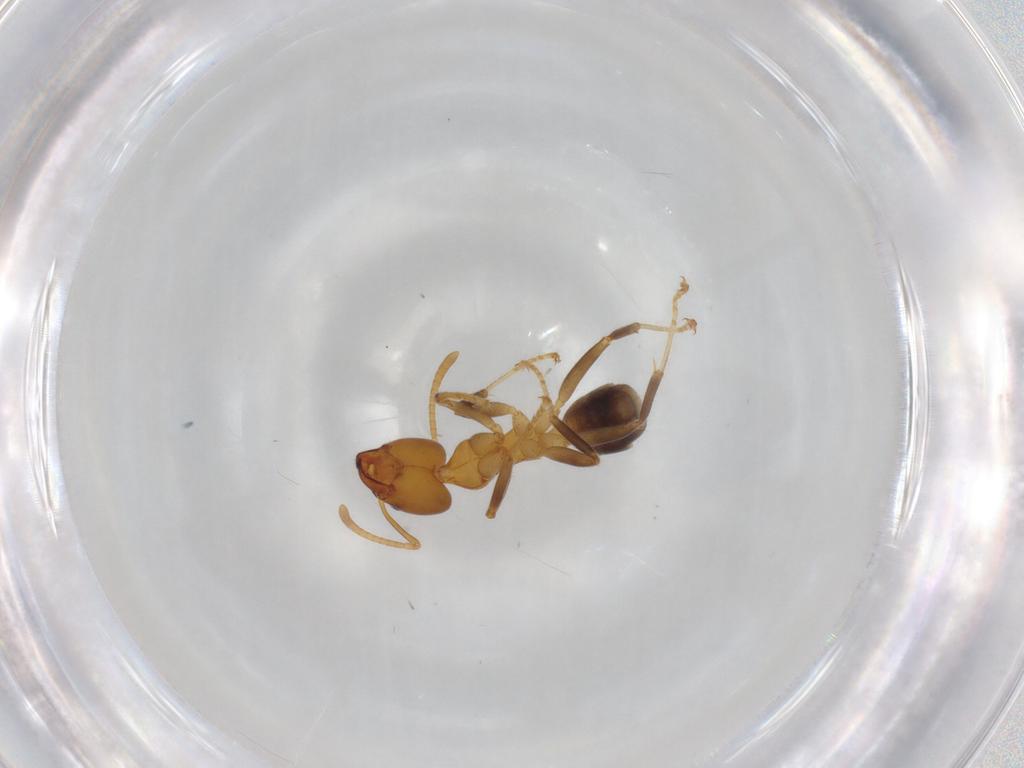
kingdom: Animalia
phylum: Arthropoda
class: Insecta
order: Hymenoptera
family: Formicidae
